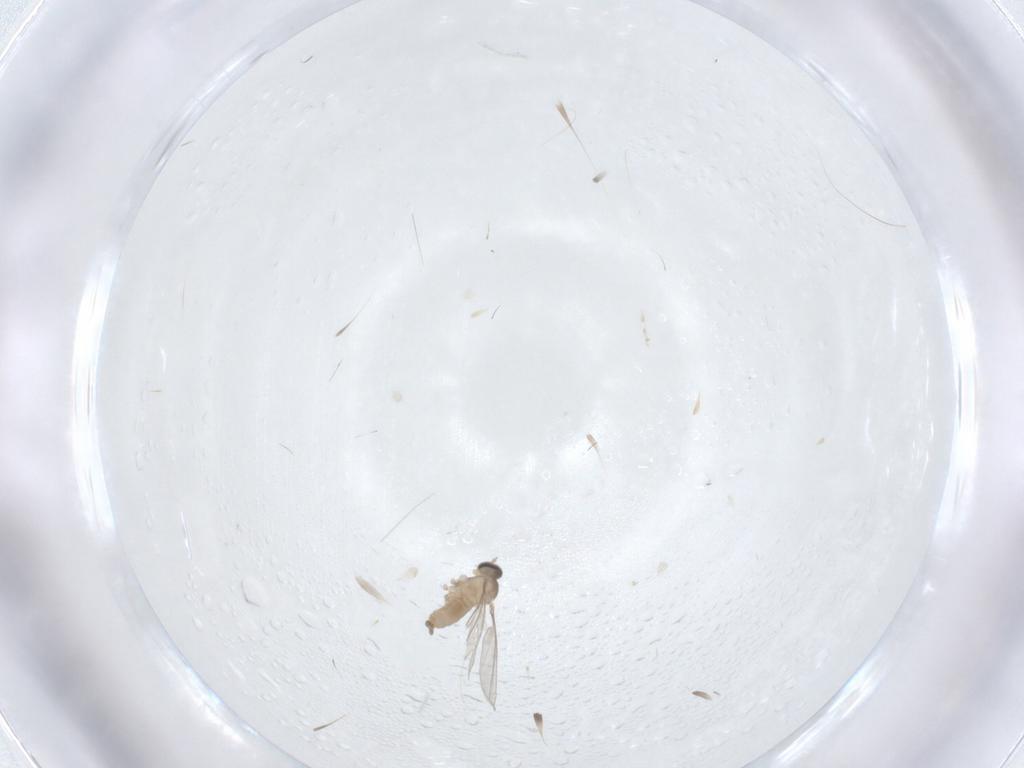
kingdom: Animalia
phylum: Arthropoda
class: Insecta
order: Diptera
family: Cecidomyiidae
